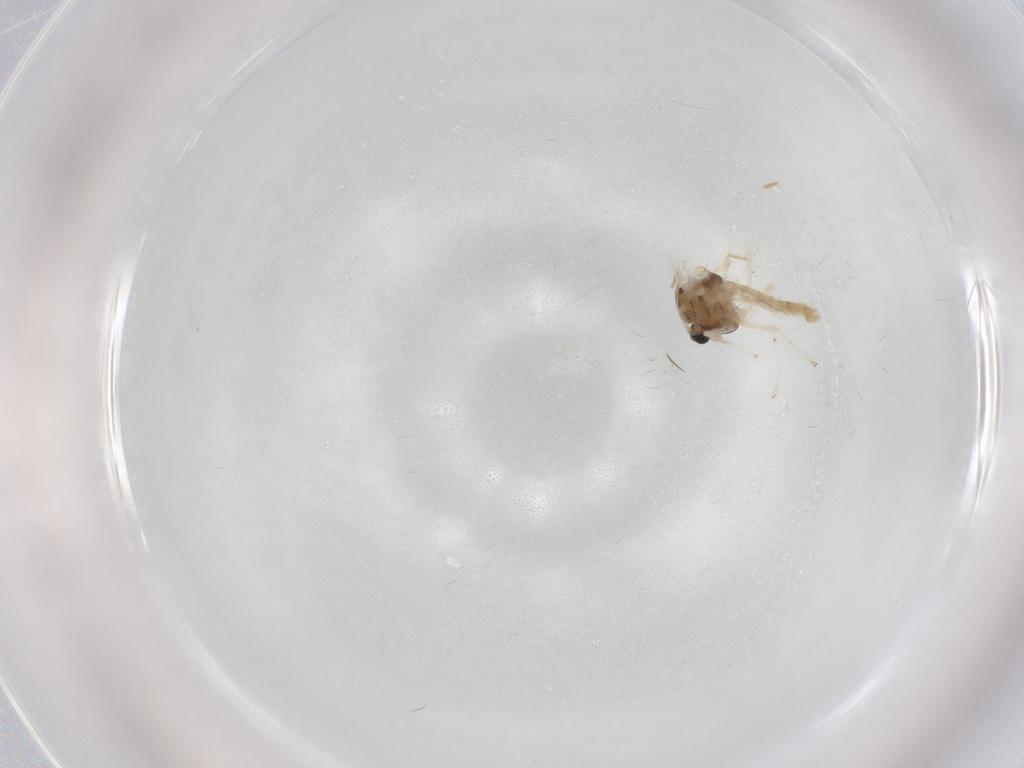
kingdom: Animalia
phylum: Arthropoda
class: Insecta
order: Diptera
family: Chironomidae
